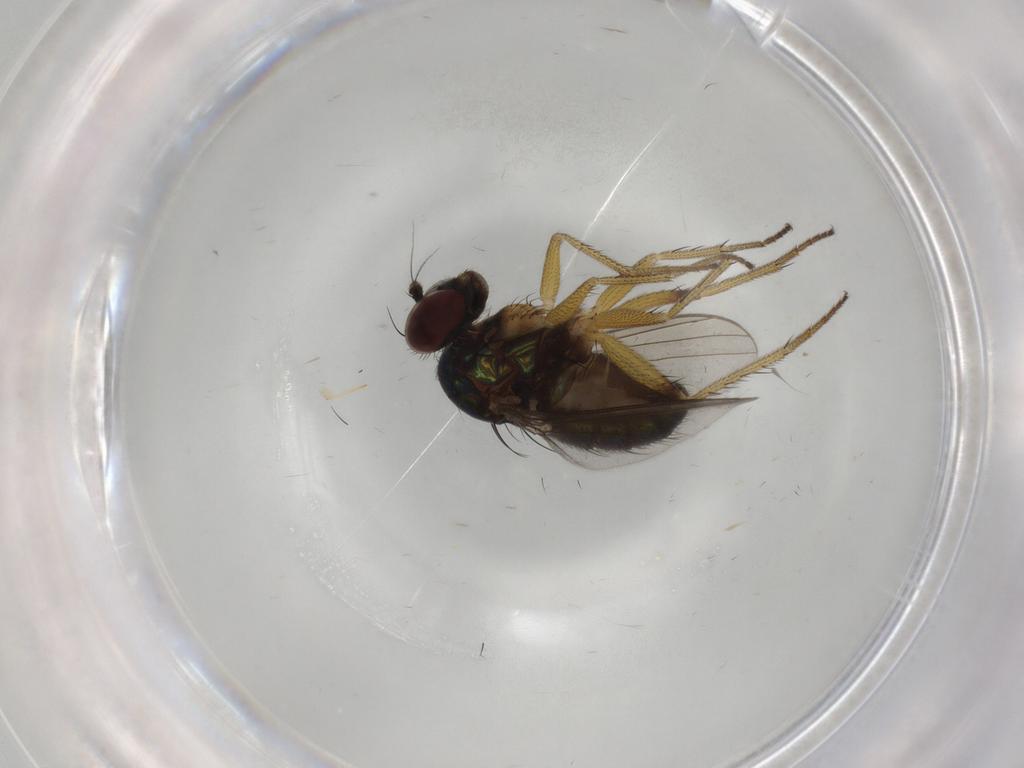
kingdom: Animalia
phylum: Arthropoda
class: Insecta
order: Diptera
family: Dolichopodidae
